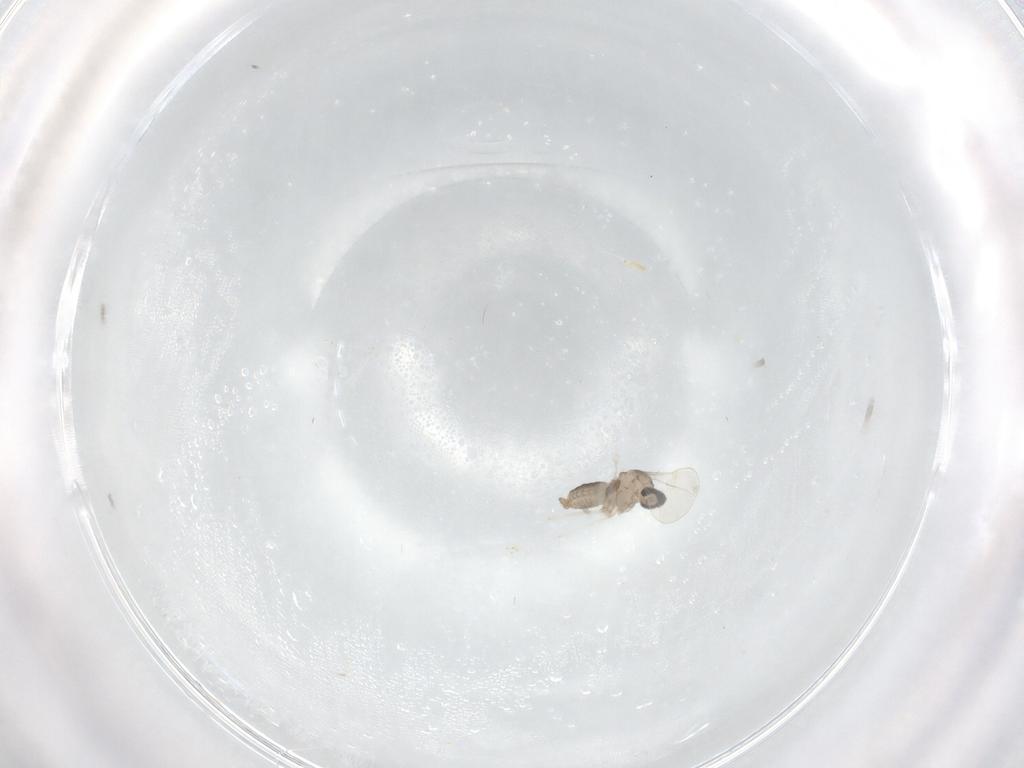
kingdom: Animalia
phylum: Arthropoda
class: Insecta
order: Diptera
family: Cecidomyiidae
